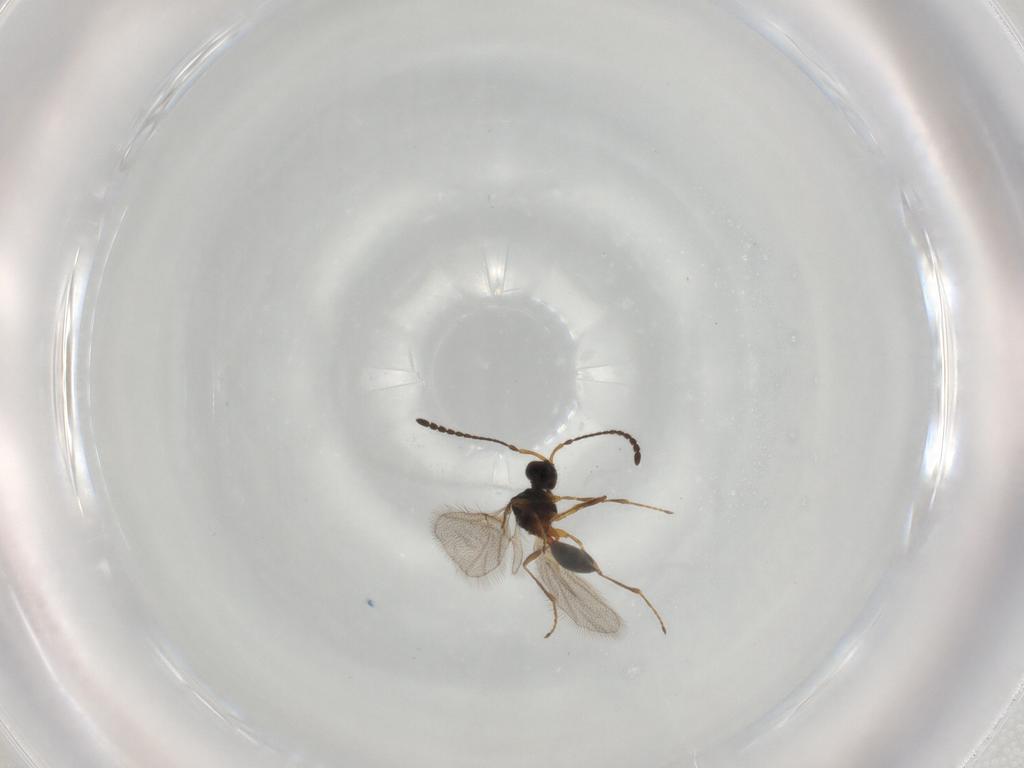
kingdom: Animalia
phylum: Arthropoda
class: Insecta
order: Hymenoptera
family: Diapriidae
